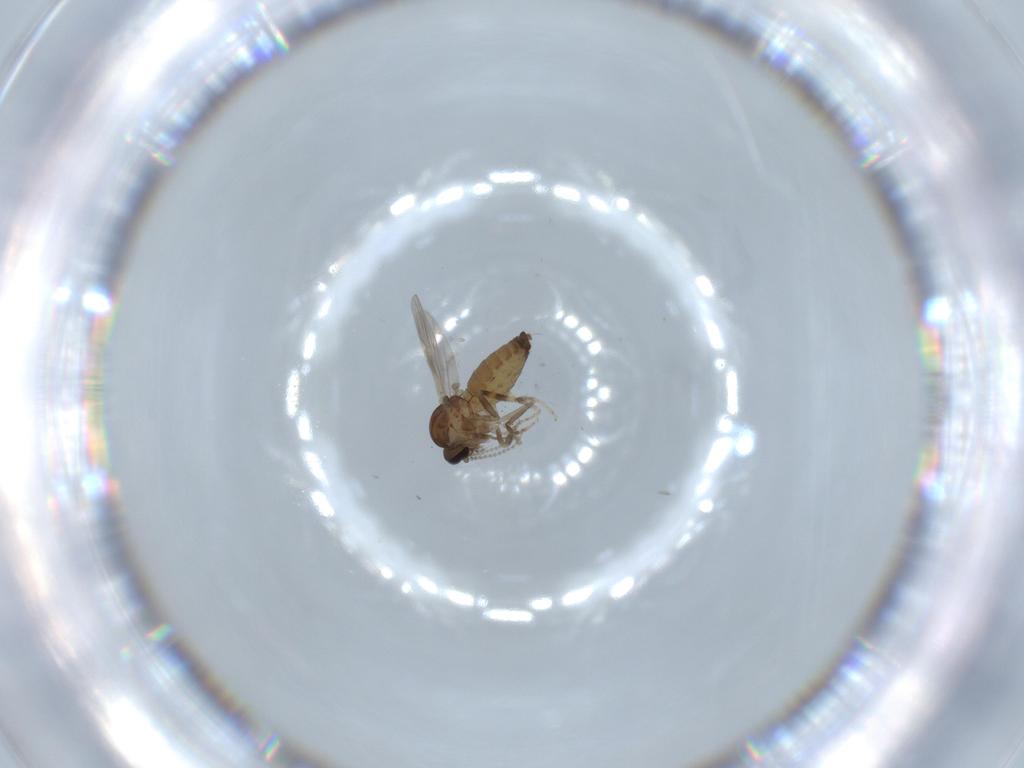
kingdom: Animalia
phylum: Arthropoda
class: Insecta
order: Diptera
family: Ceratopogonidae
